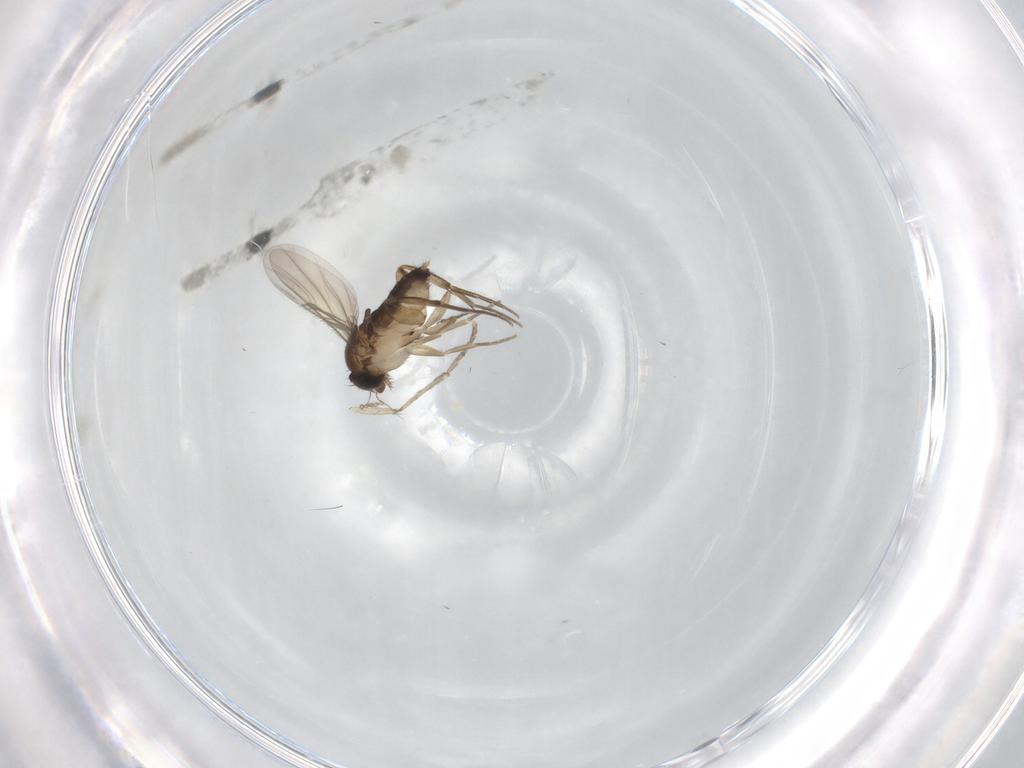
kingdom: Animalia
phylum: Arthropoda
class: Insecta
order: Diptera
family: Phoridae
